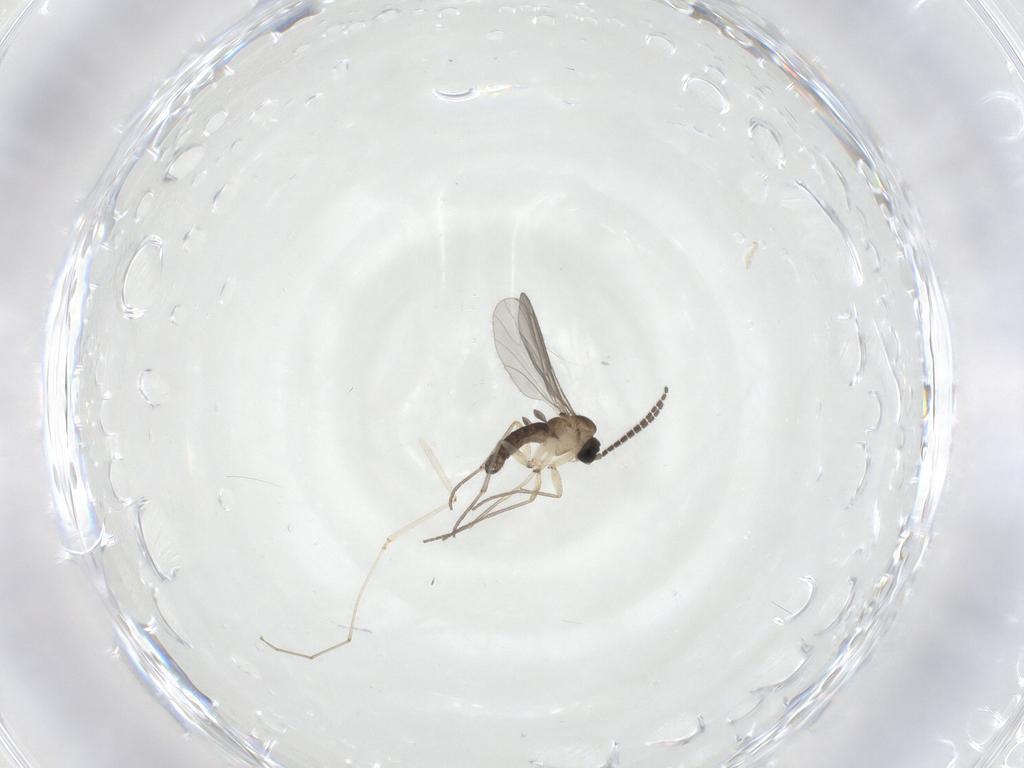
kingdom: Animalia
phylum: Arthropoda
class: Insecta
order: Diptera
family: Sciaridae
